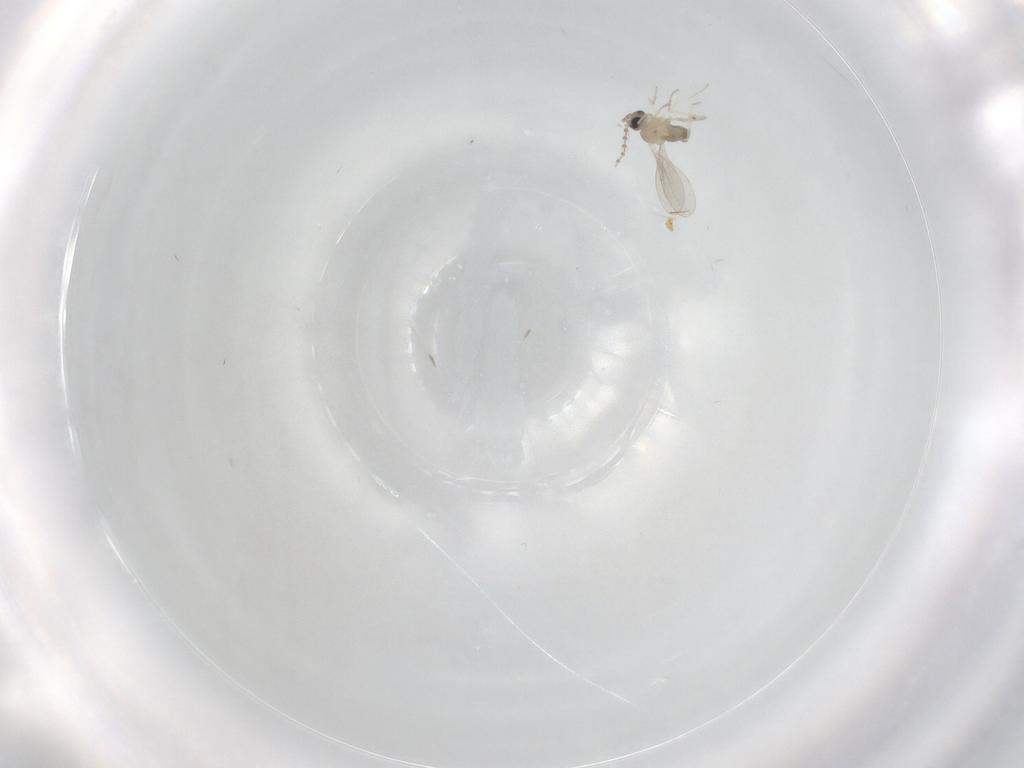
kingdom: Animalia
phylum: Arthropoda
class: Insecta
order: Diptera
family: Cecidomyiidae
